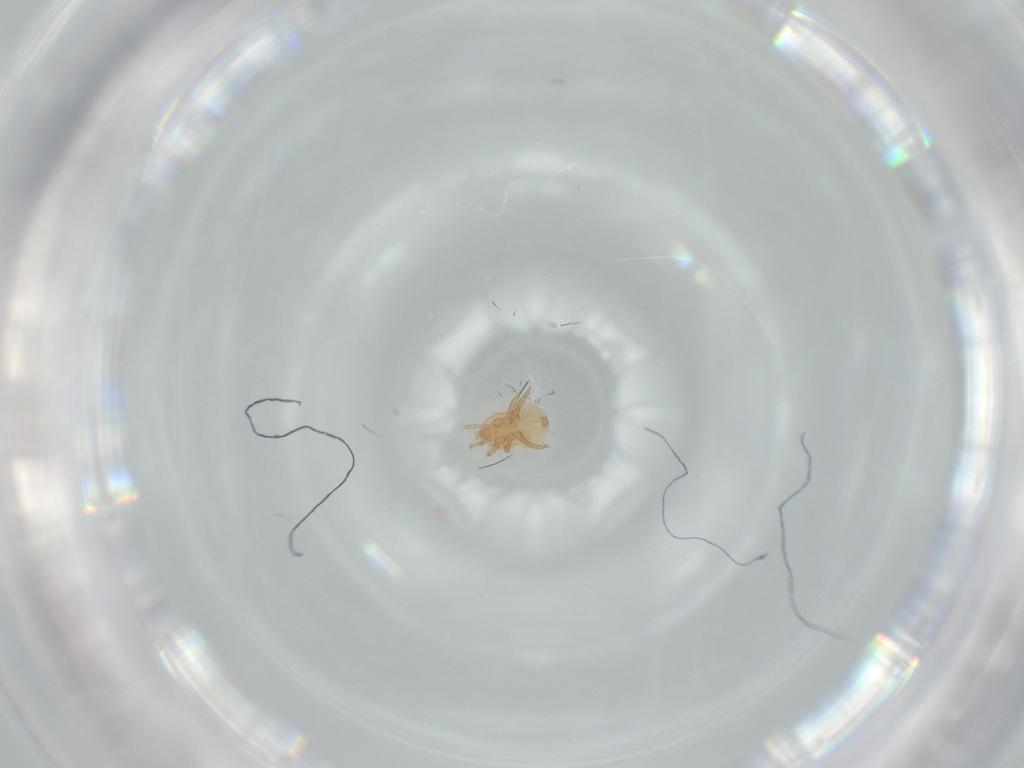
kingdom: Animalia
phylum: Arthropoda
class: Arachnida
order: Mesostigmata
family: Halolaelapidae
